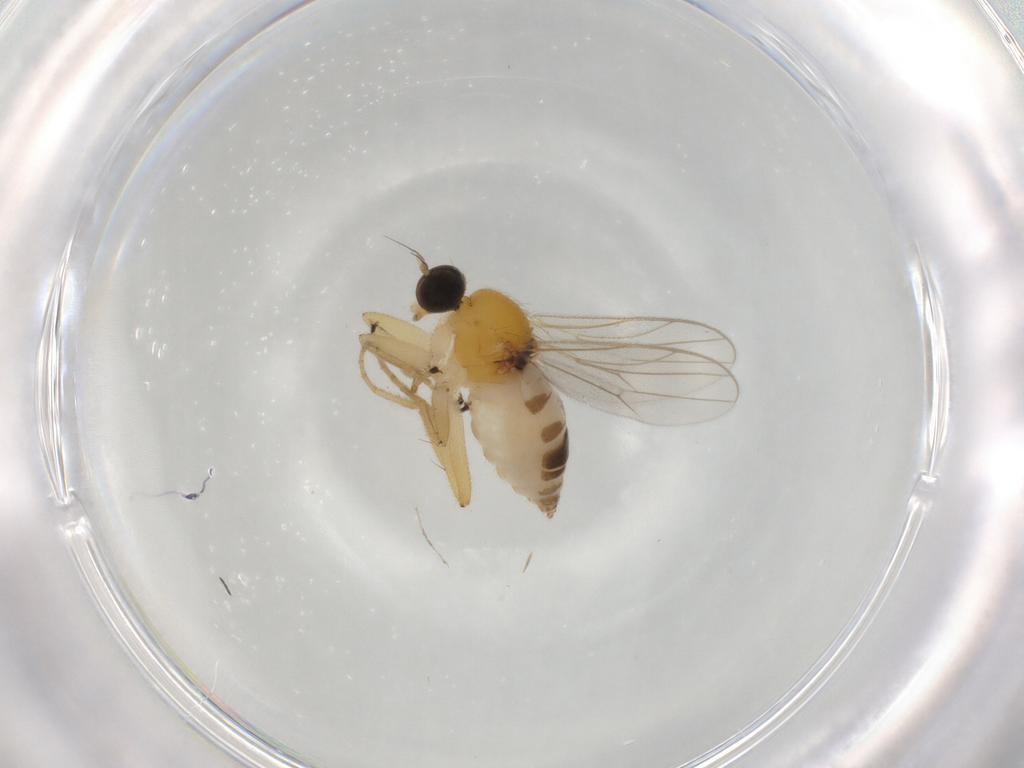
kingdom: Animalia
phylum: Arthropoda
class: Insecta
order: Diptera
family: Hybotidae
